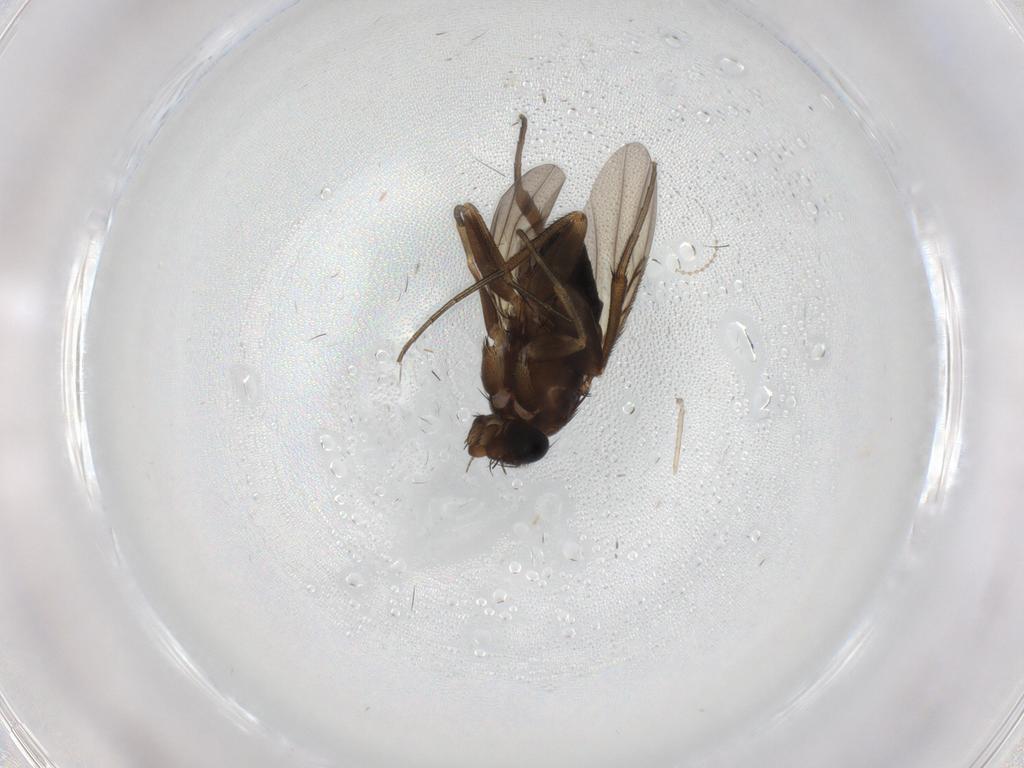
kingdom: Animalia
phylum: Arthropoda
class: Insecta
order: Diptera
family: Phoridae
